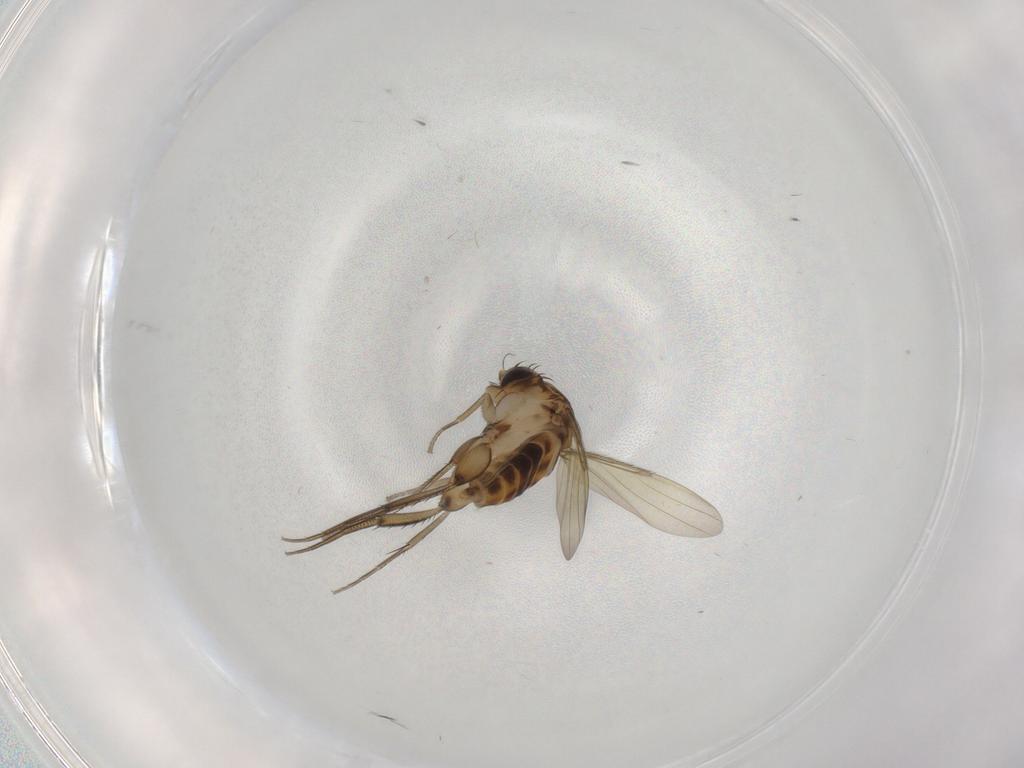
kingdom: Animalia
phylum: Arthropoda
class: Insecta
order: Diptera
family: Phoridae
